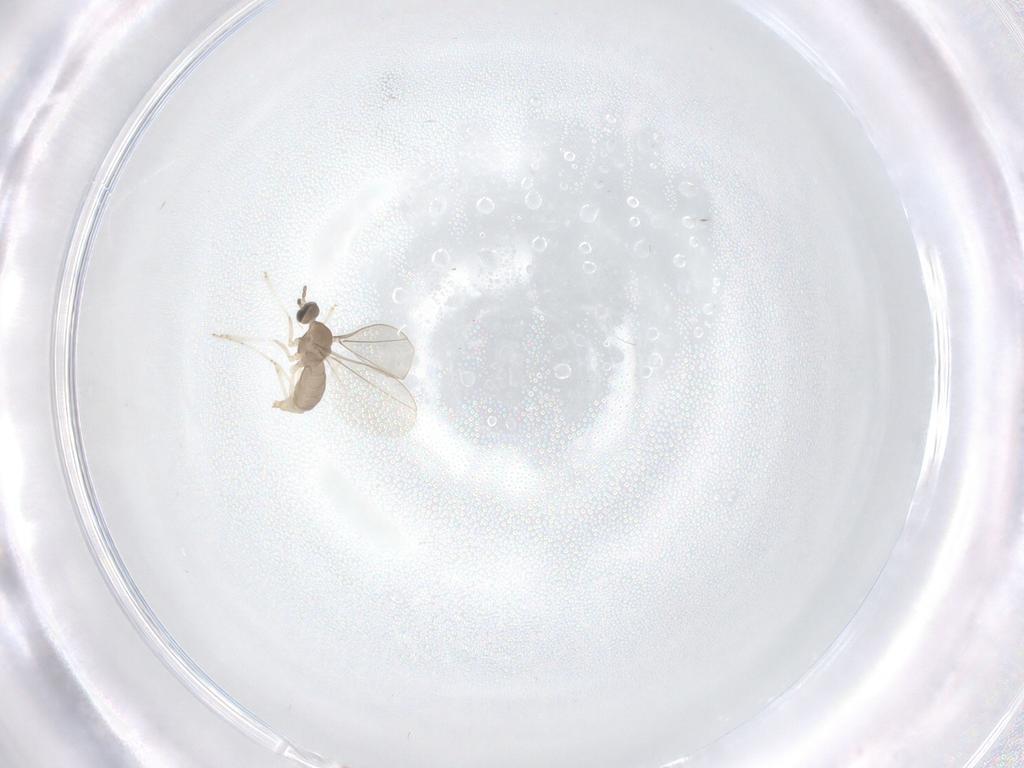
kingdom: Animalia
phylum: Arthropoda
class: Insecta
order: Diptera
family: Cecidomyiidae
